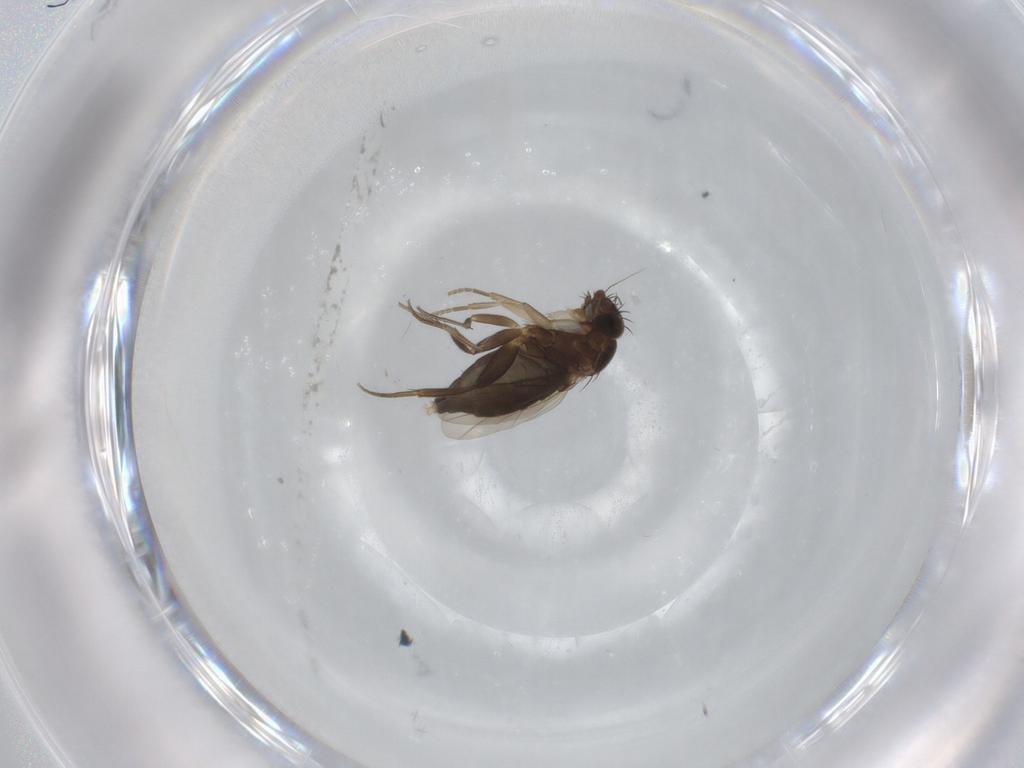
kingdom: Animalia
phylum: Arthropoda
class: Insecta
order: Diptera
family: Phoridae
